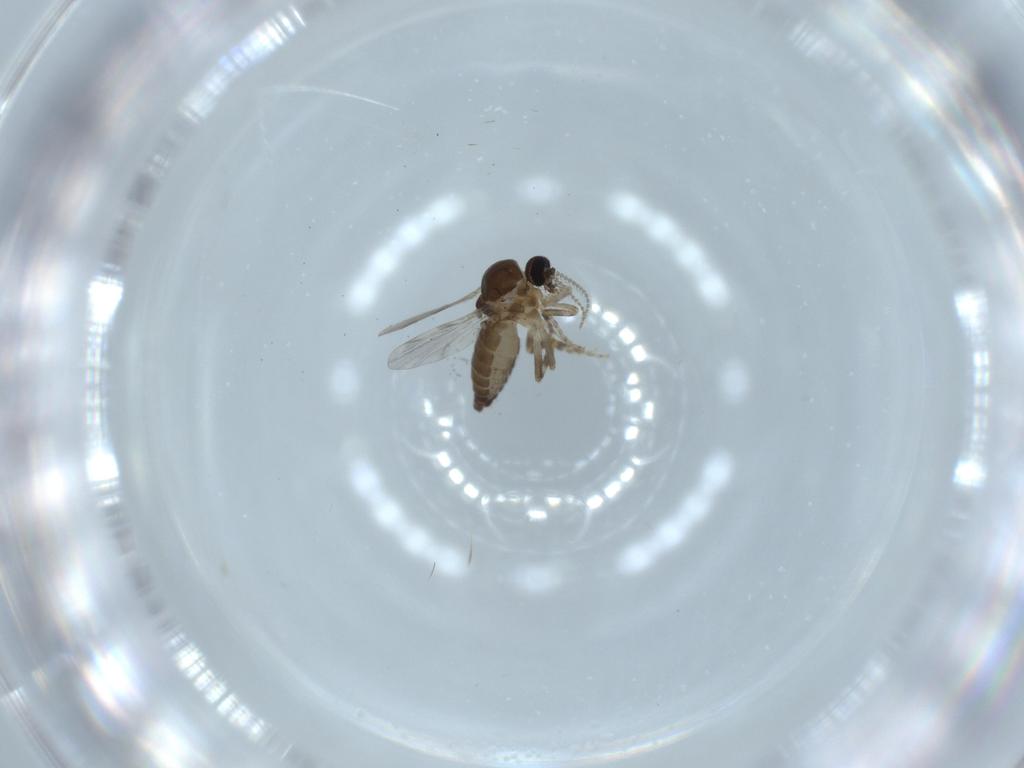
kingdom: Animalia
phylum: Arthropoda
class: Insecta
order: Diptera
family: Ceratopogonidae
